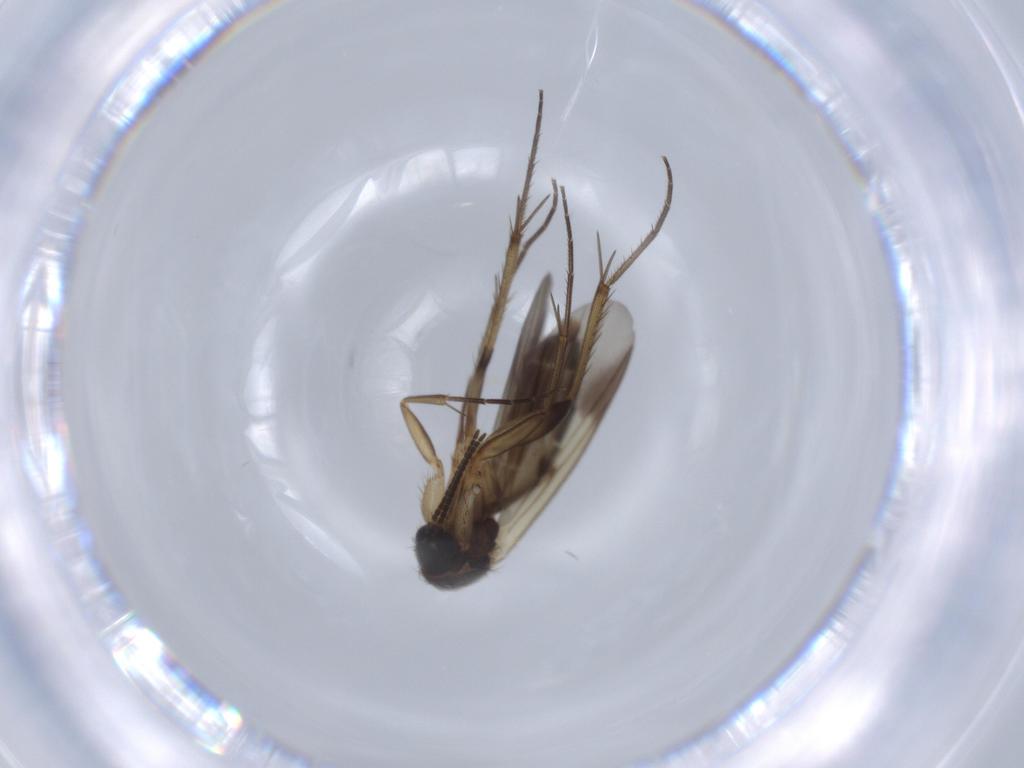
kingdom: Animalia
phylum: Arthropoda
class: Insecta
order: Diptera
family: Mycetophilidae
